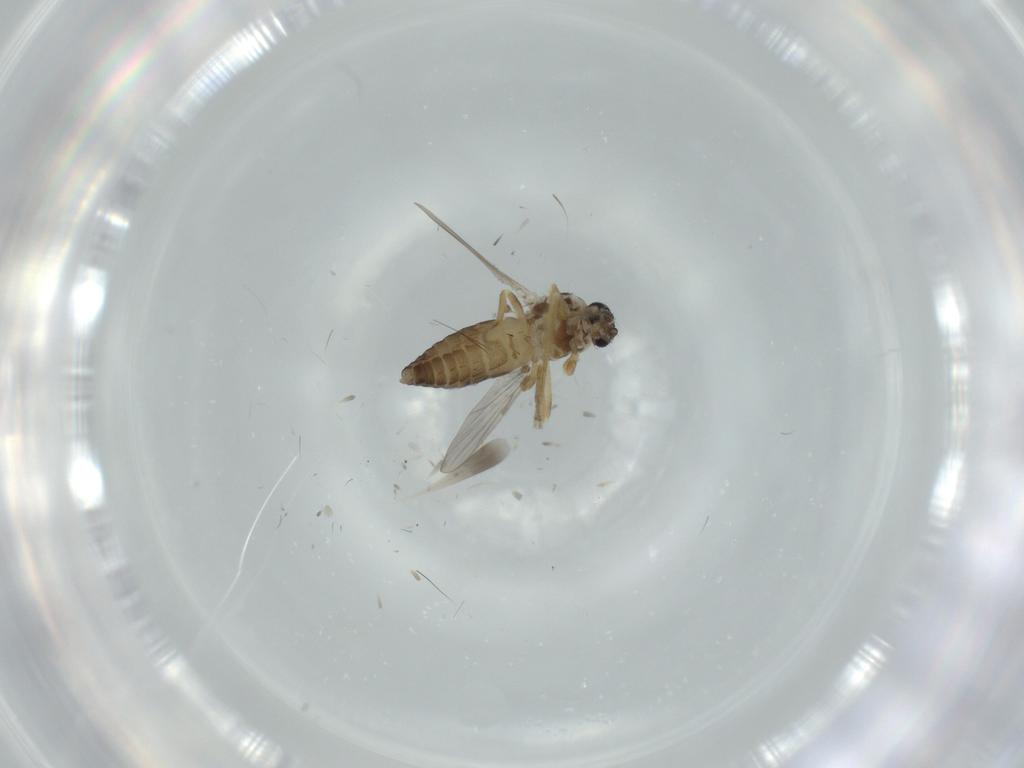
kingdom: Animalia
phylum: Arthropoda
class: Insecta
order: Diptera
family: Ceratopogonidae
